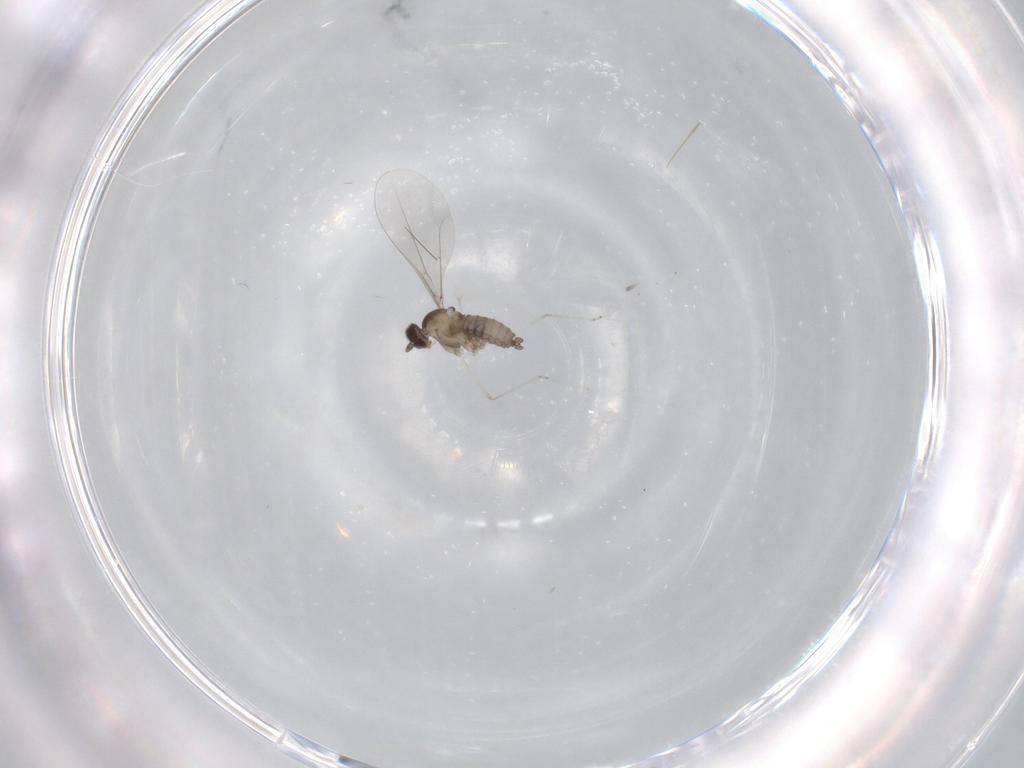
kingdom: Animalia
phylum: Arthropoda
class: Insecta
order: Diptera
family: Cecidomyiidae
